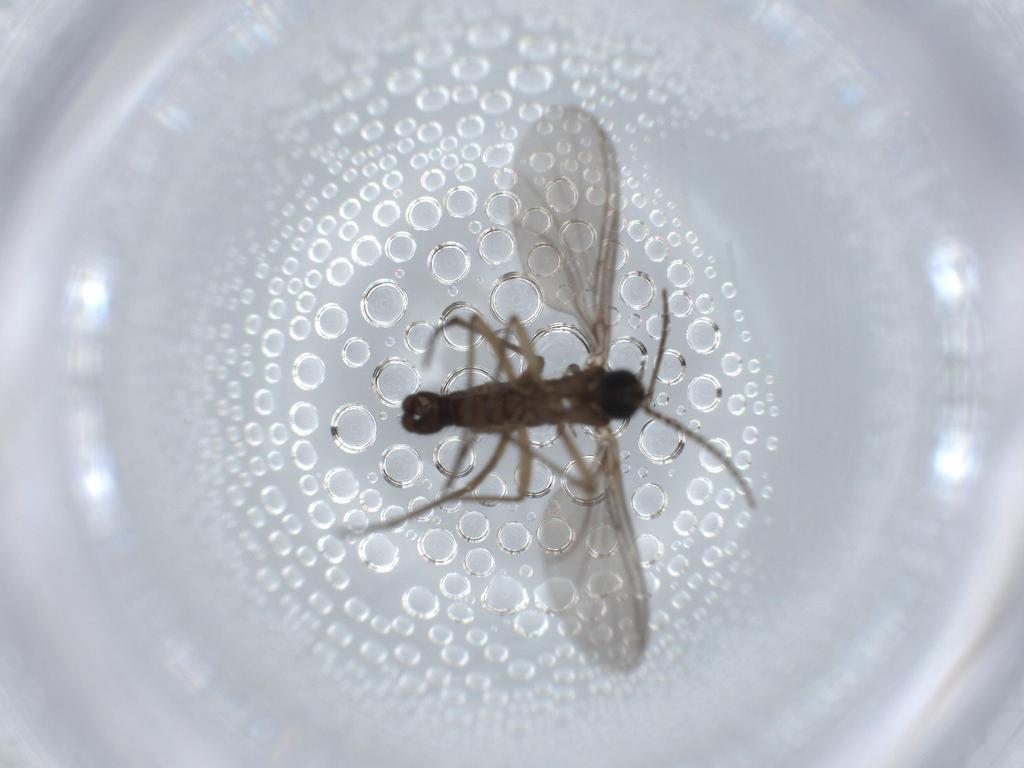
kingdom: Animalia
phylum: Arthropoda
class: Insecta
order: Diptera
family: Sciaridae
